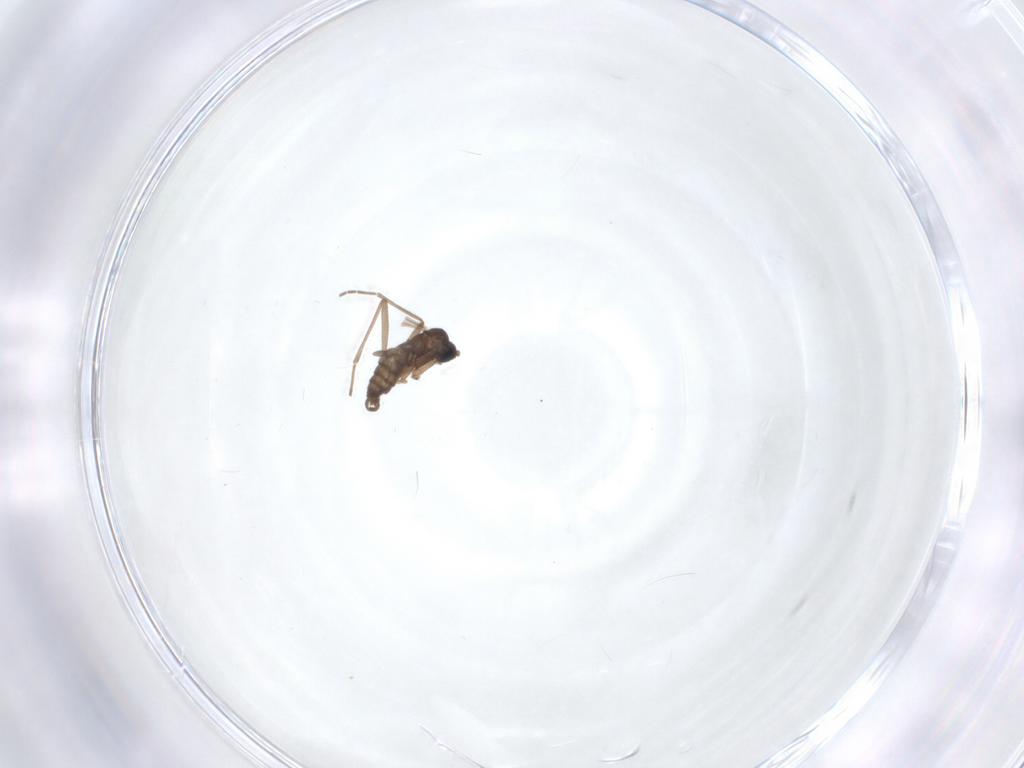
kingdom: Animalia
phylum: Arthropoda
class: Insecta
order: Diptera
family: Sciaridae
